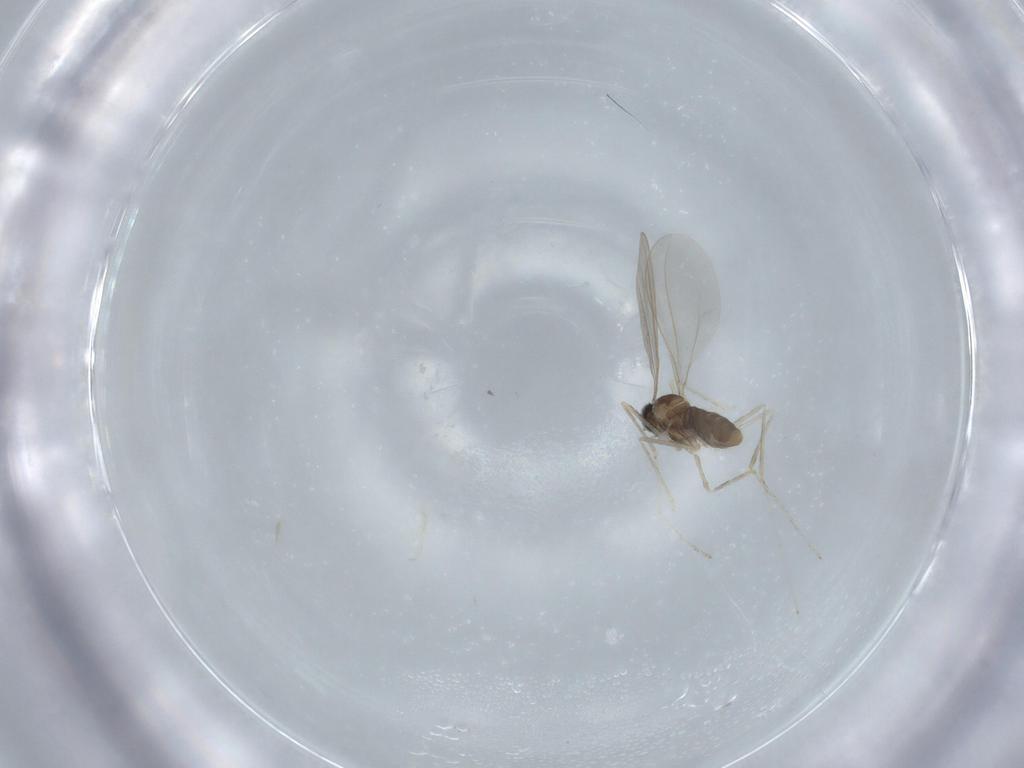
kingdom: Animalia
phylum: Arthropoda
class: Insecta
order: Diptera
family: Cecidomyiidae
